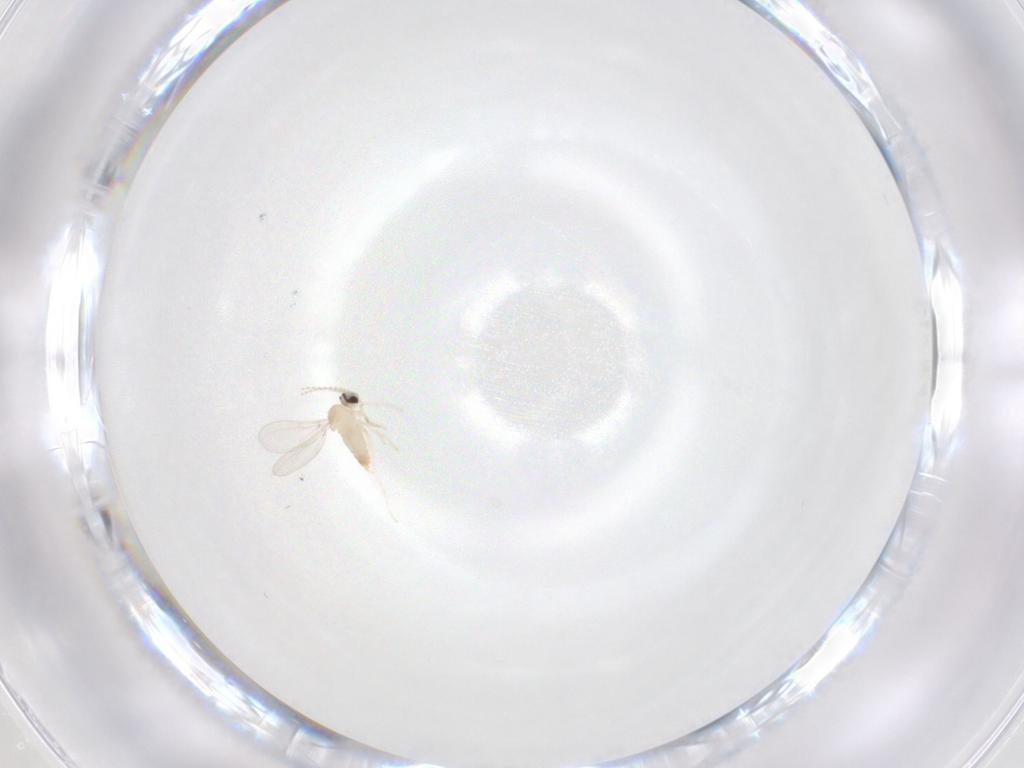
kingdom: Animalia
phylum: Arthropoda
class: Insecta
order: Diptera
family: Cecidomyiidae
